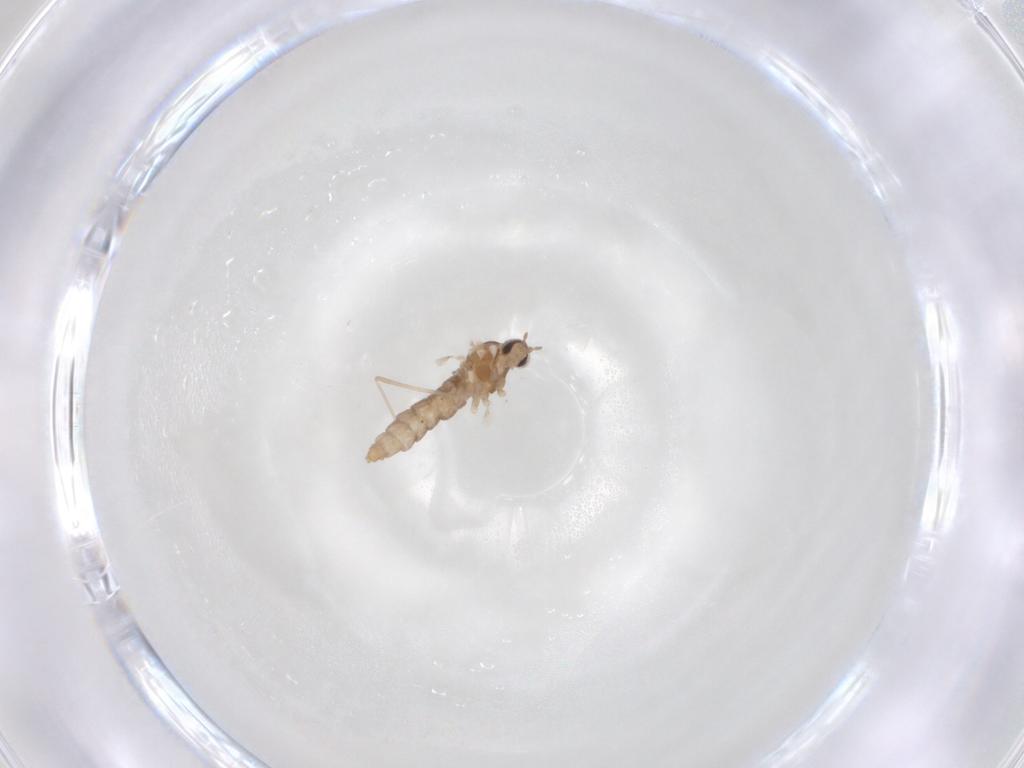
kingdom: Animalia
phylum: Arthropoda
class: Insecta
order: Diptera
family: Cecidomyiidae
